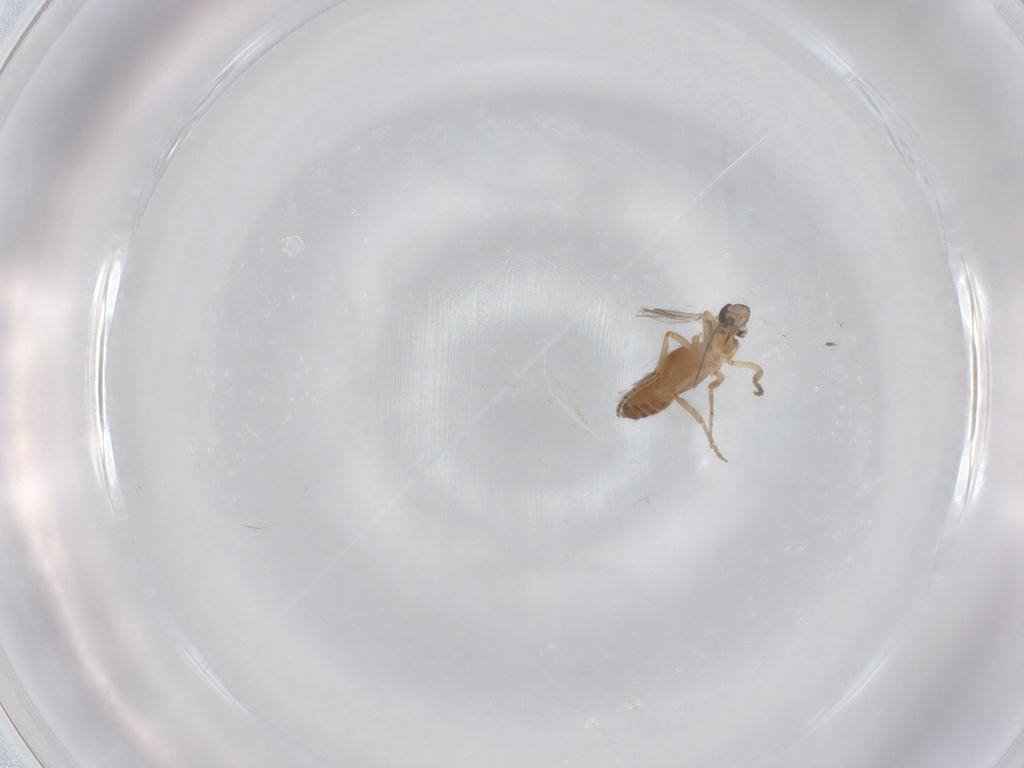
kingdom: Animalia
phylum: Arthropoda
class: Insecta
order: Diptera
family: Ceratopogonidae
